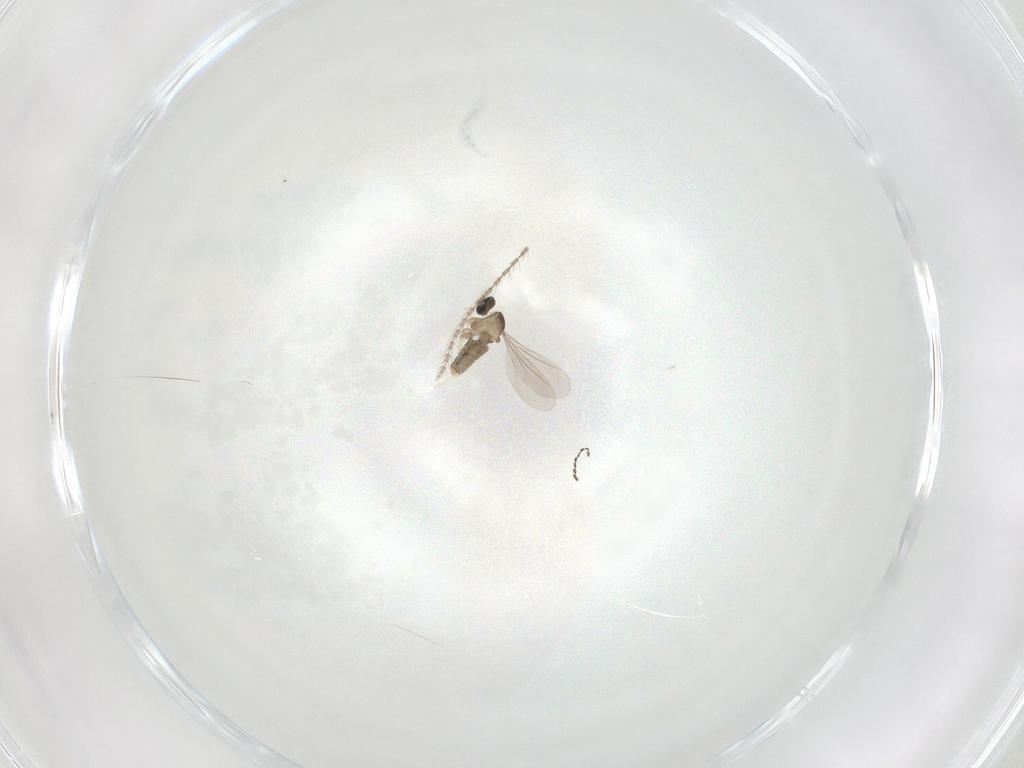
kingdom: Animalia
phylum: Arthropoda
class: Insecta
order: Diptera
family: Cecidomyiidae
